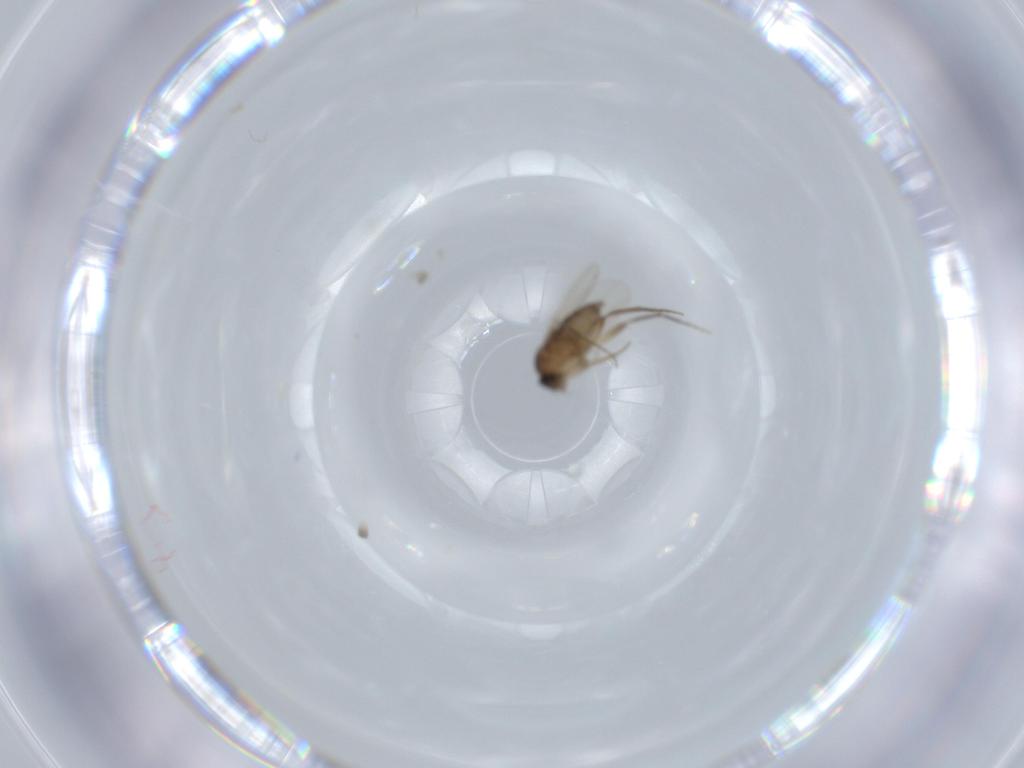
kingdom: Animalia
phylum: Arthropoda
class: Insecta
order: Diptera
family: Phoridae
